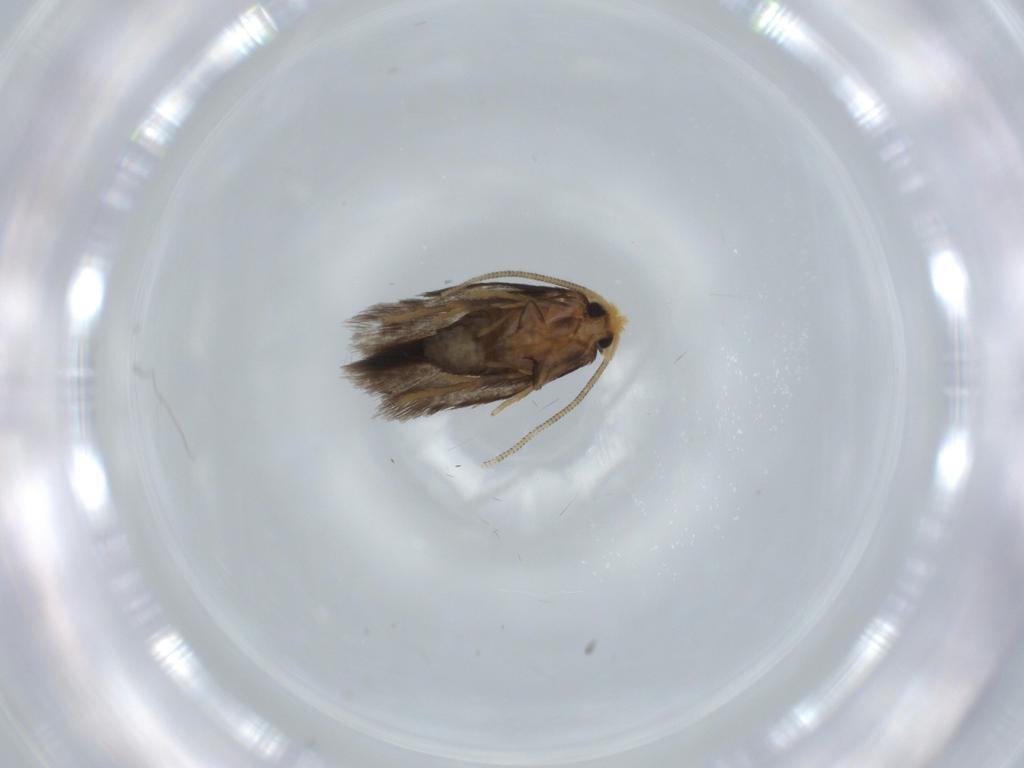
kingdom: Animalia
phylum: Arthropoda
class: Insecta
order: Lepidoptera
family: Nepticulidae
